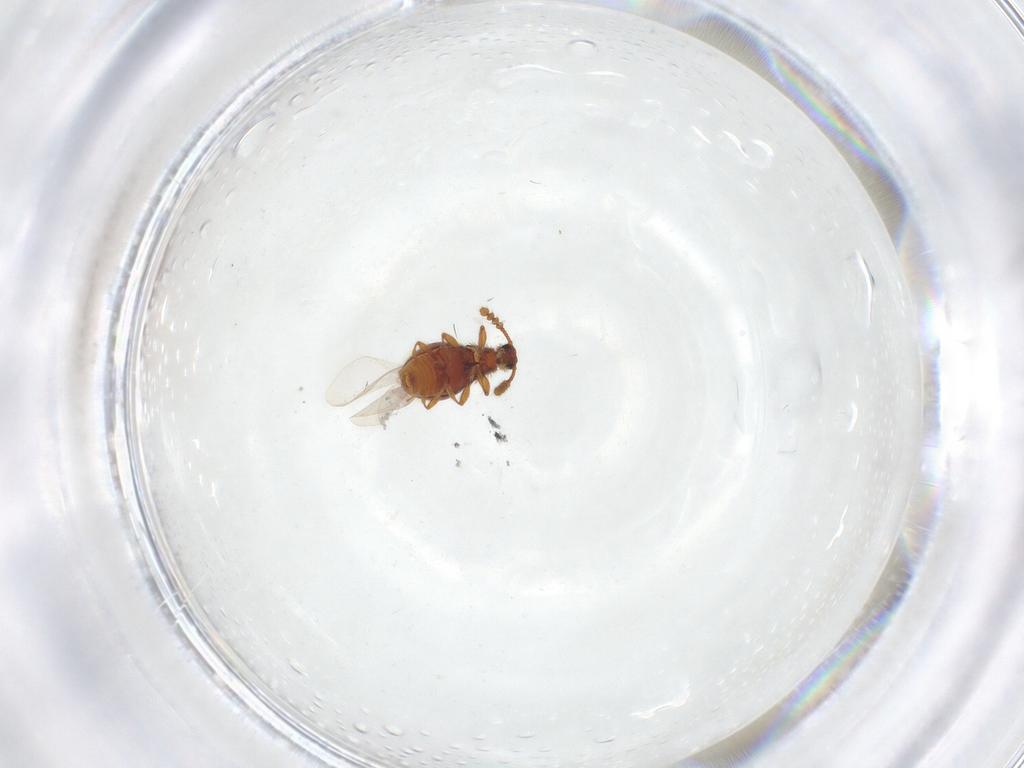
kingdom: Animalia
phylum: Arthropoda
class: Insecta
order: Coleoptera
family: Staphylinidae
